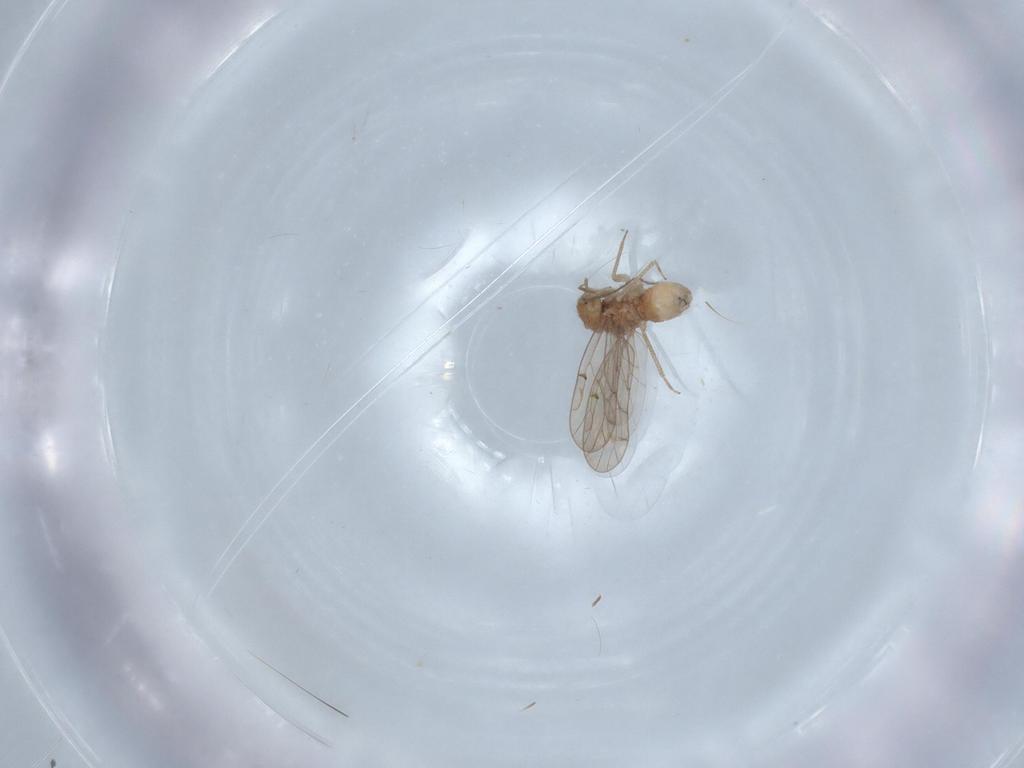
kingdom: Animalia
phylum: Arthropoda
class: Insecta
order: Psocodea
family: Ectopsocidae
